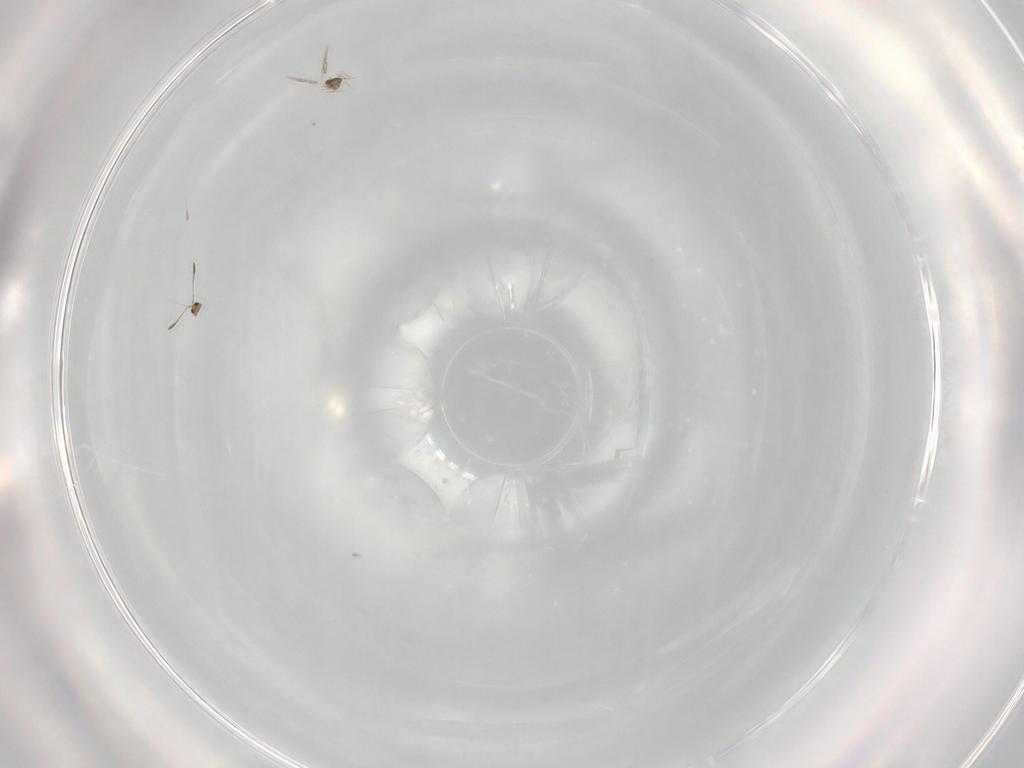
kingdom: Animalia
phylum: Arthropoda
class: Insecta
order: Hymenoptera
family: Mymarommatidae
